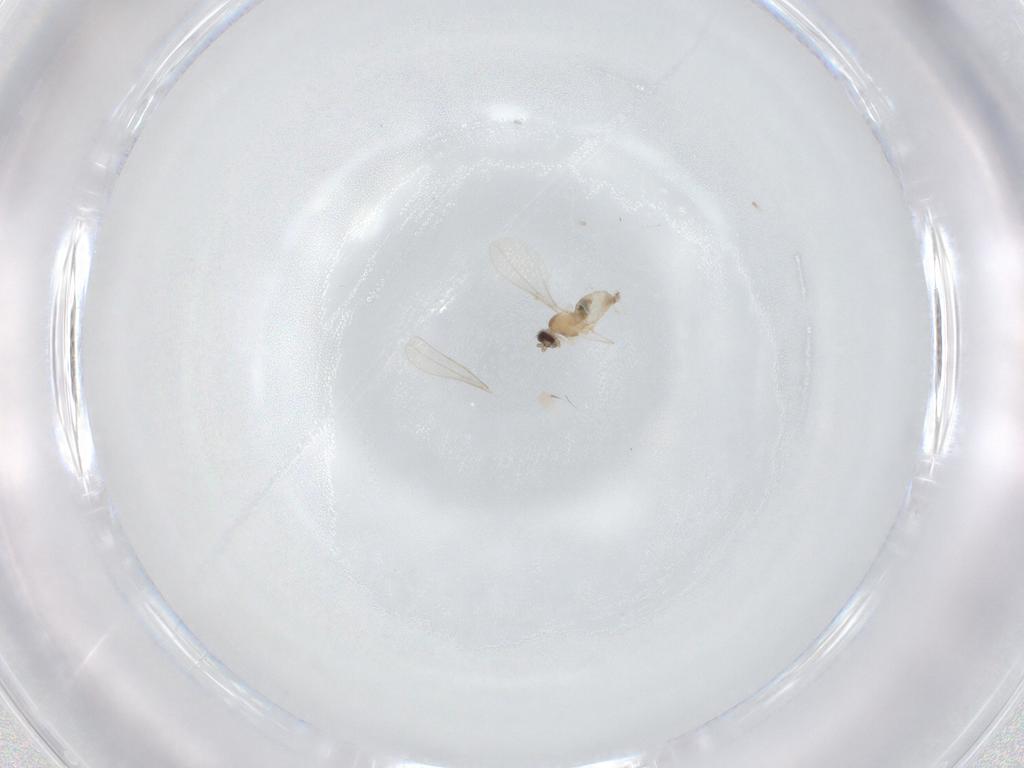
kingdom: Animalia
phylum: Arthropoda
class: Insecta
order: Diptera
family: Cecidomyiidae
